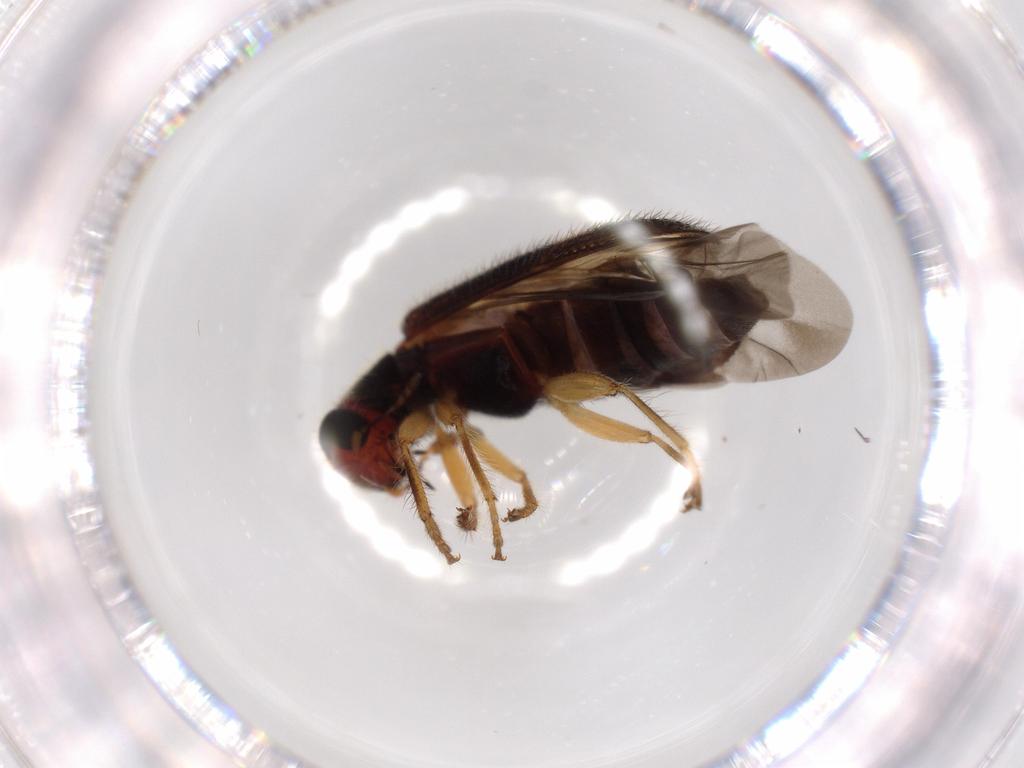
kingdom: Animalia
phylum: Arthropoda
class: Insecta
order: Coleoptera
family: Cleridae
